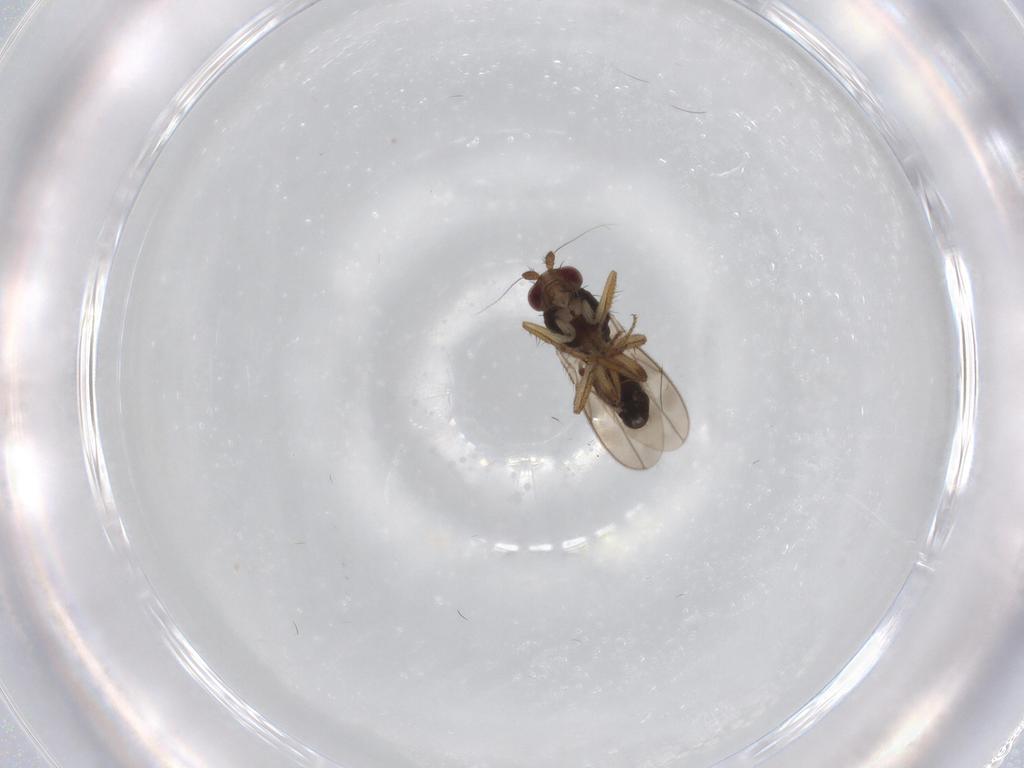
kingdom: Animalia
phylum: Arthropoda
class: Insecta
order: Diptera
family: Sphaeroceridae
